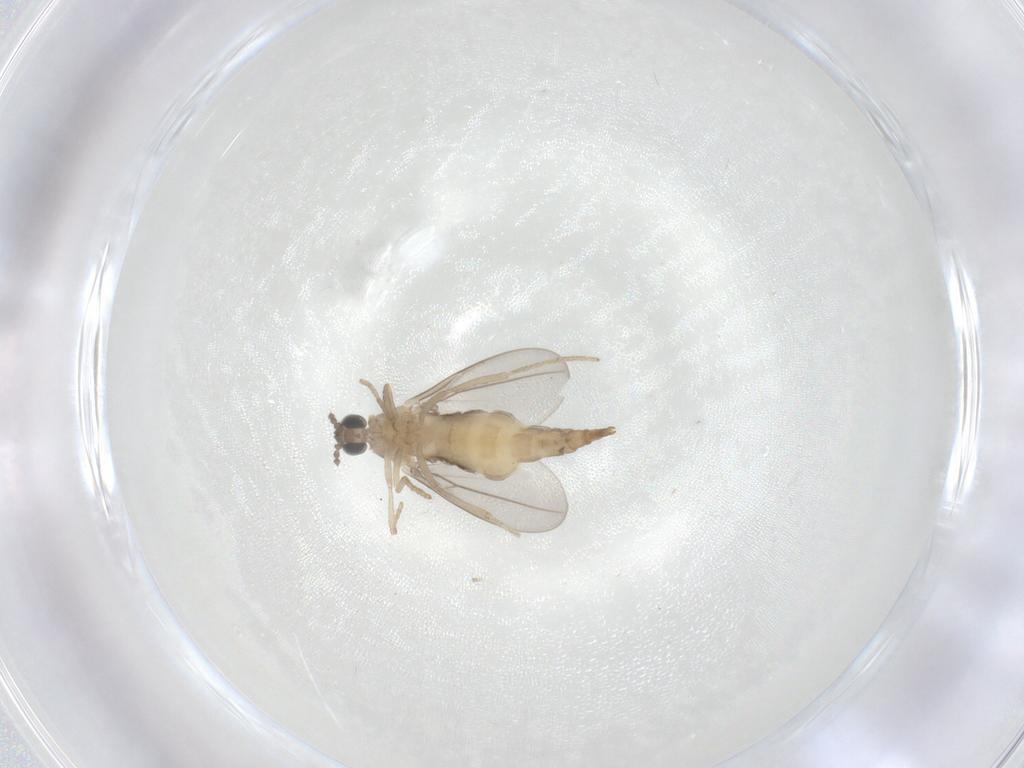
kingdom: Animalia
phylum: Arthropoda
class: Insecta
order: Diptera
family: Cecidomyiidae
